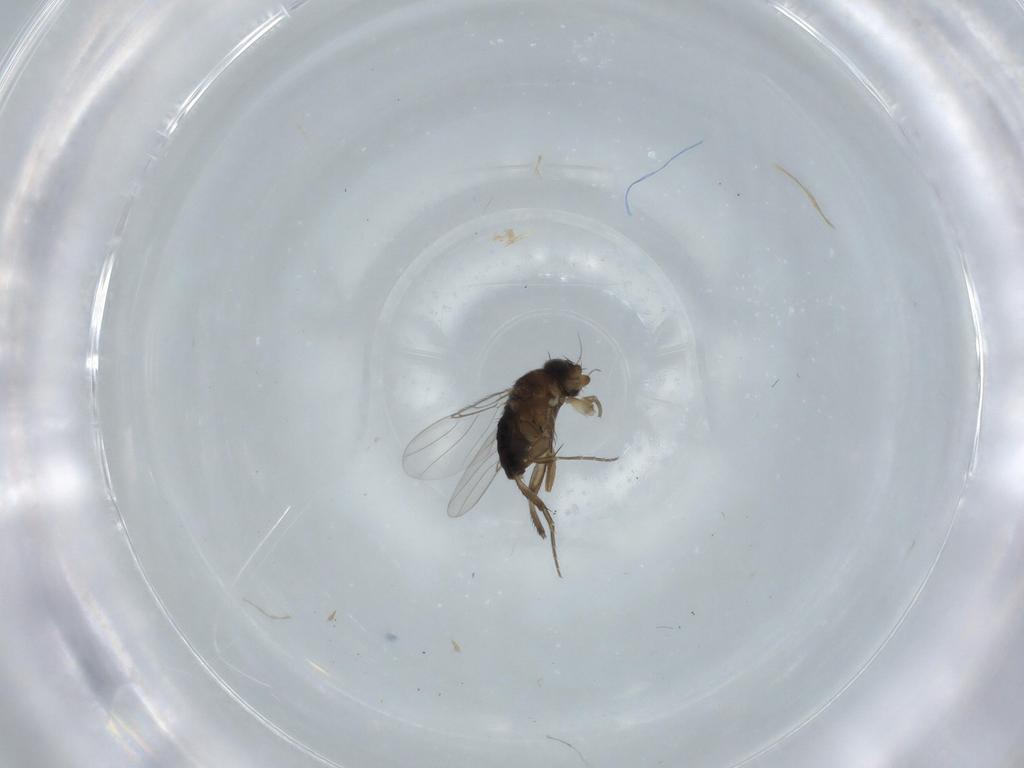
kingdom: Animalia
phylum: Arthropoda
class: Insecta
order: Diptera
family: Phoridae
